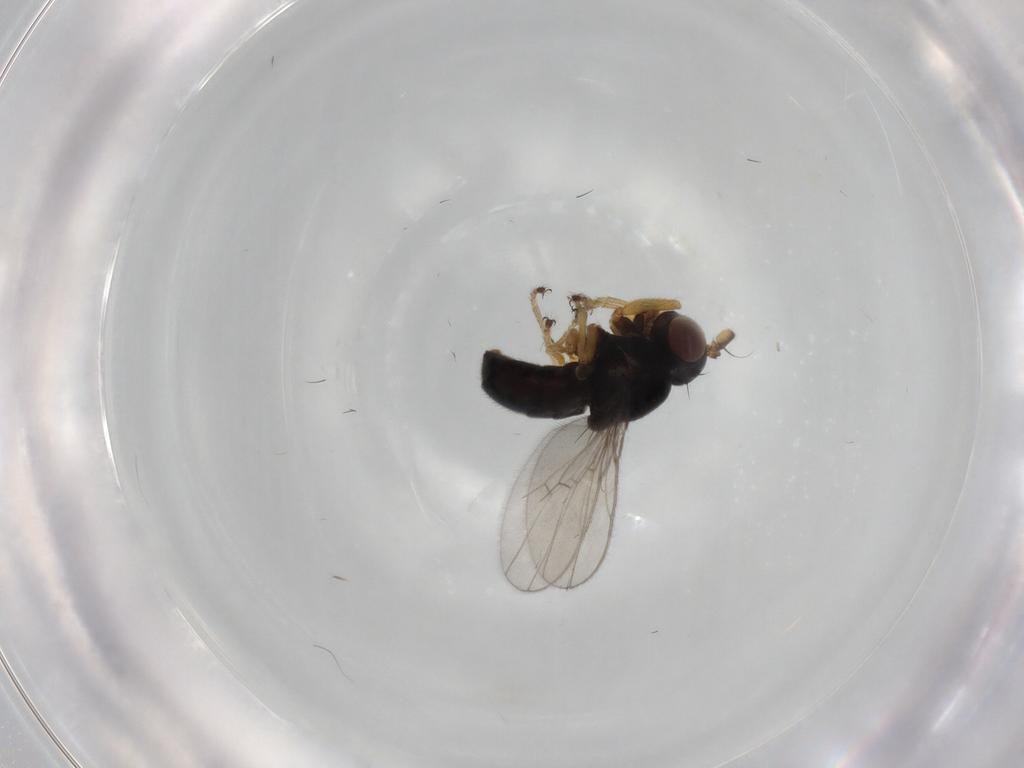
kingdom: Animalia
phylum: Arthropoda
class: Insecta
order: Diptera
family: Ephydridae
